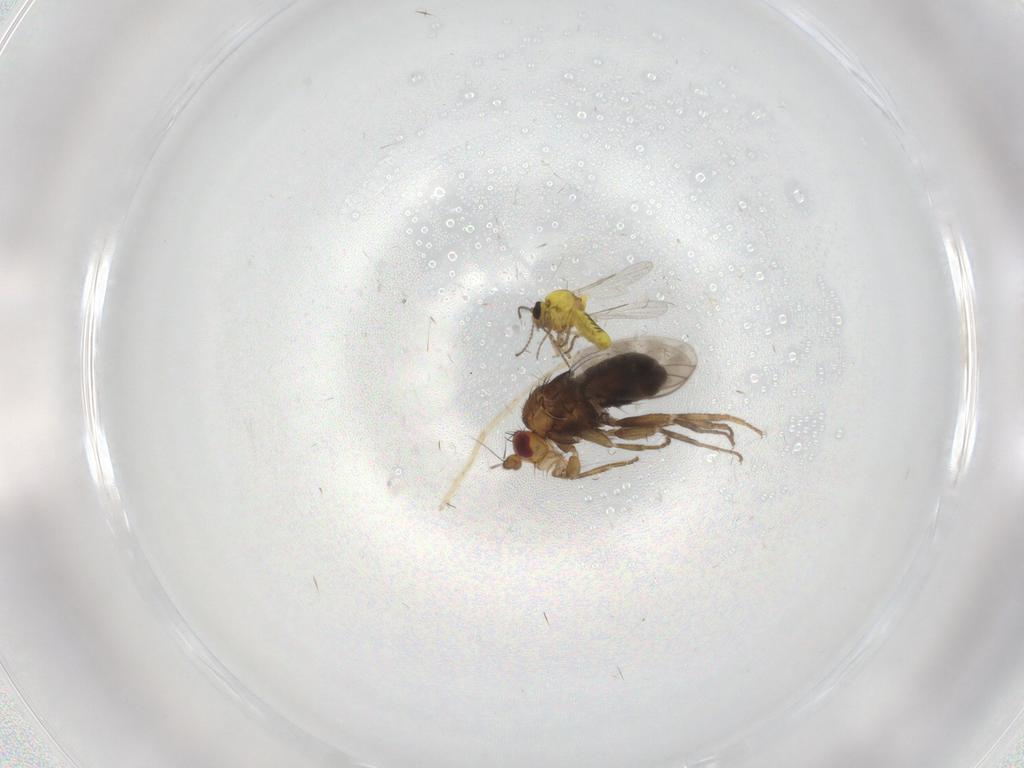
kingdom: Animalia
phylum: Arthropoda
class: Insecta
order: Diptera
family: Sphaeroceridae
